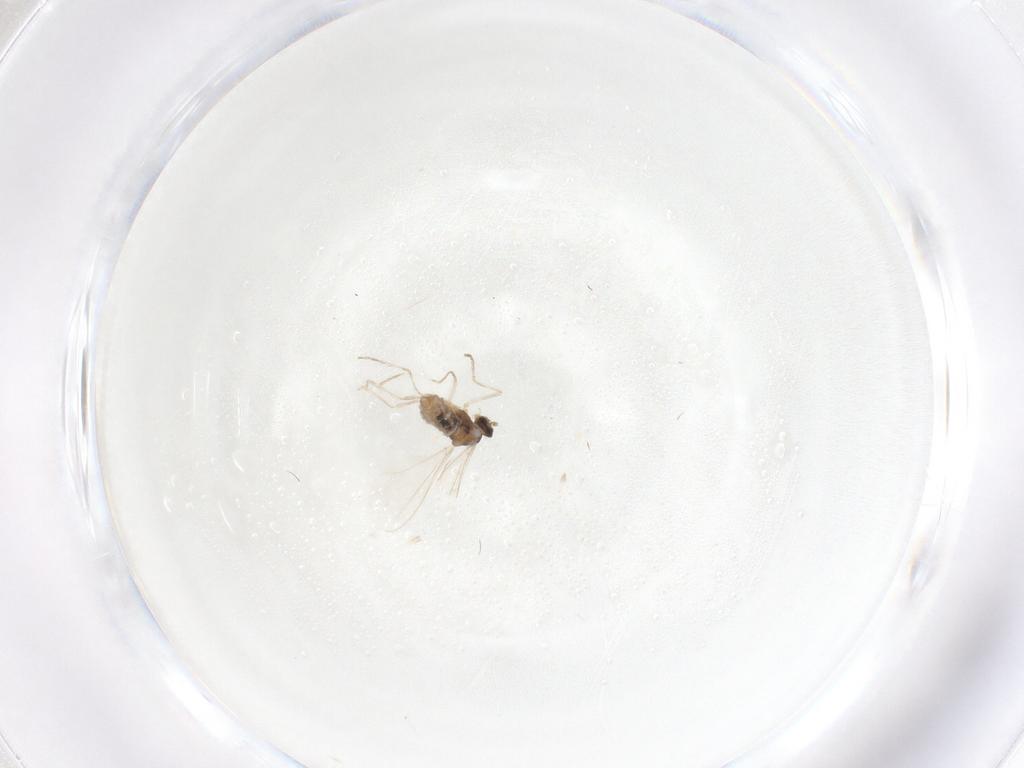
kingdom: Animalia
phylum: Arthropoda
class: Insecta
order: Diptera
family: Cecidomyiidae
